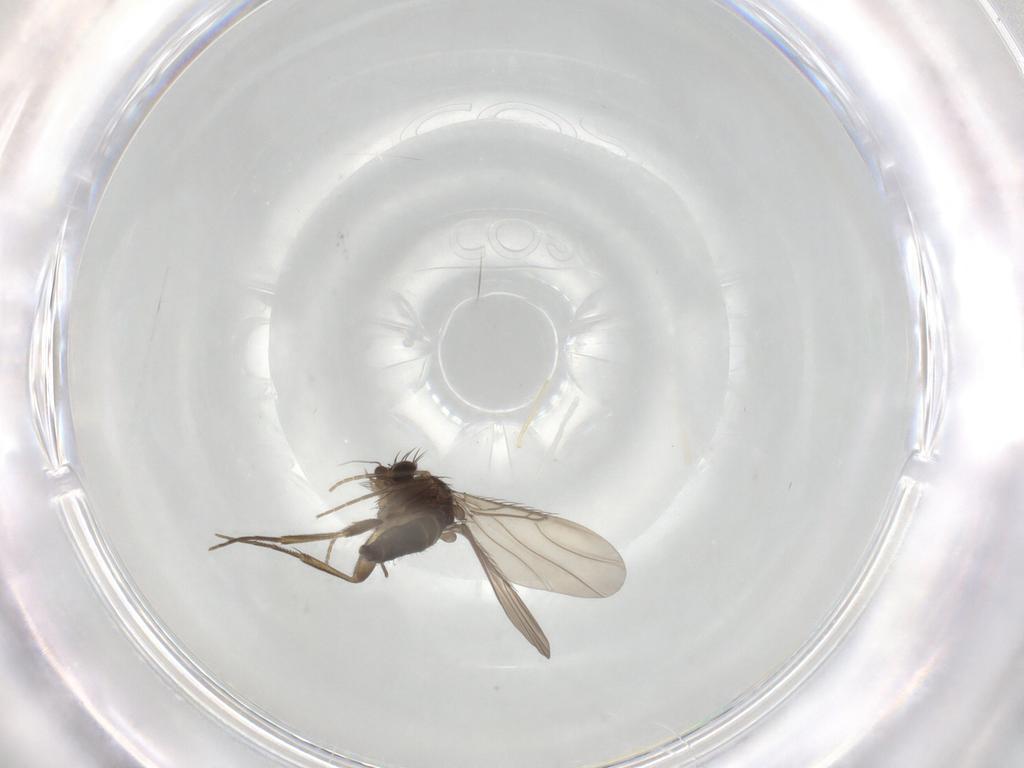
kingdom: Animalia
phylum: Arthropoda
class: Insecta
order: Diptera
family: Phoridae
